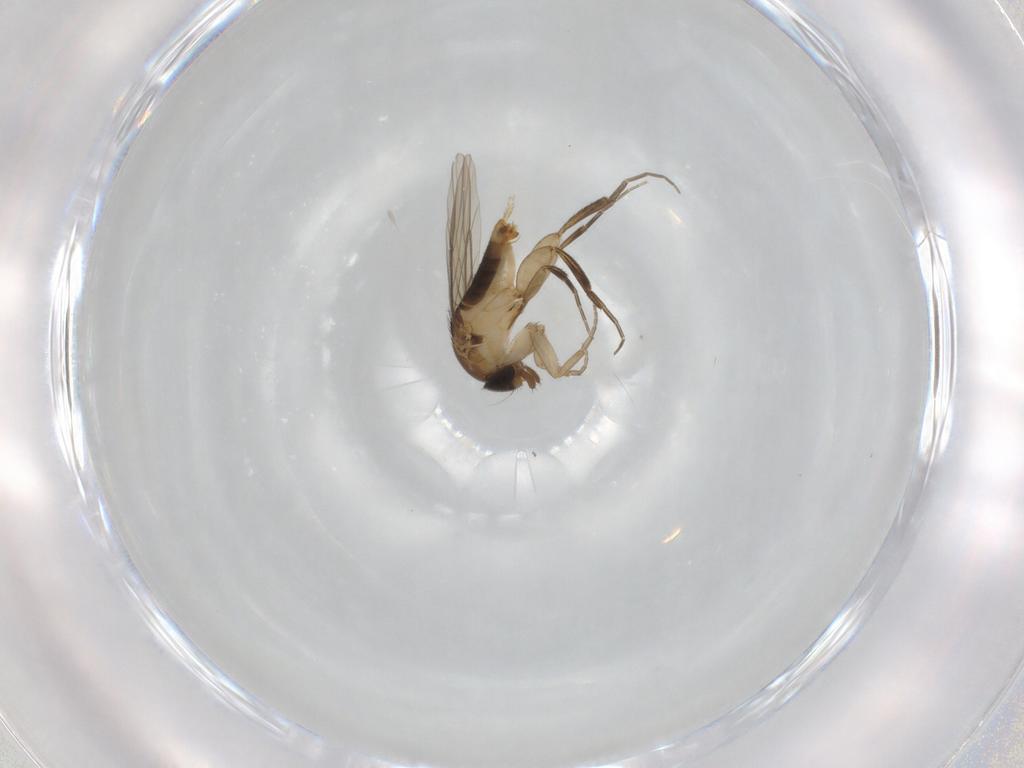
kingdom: Animalia
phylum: Arthropoda
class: Insecta
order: Diptera
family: Phoridae
